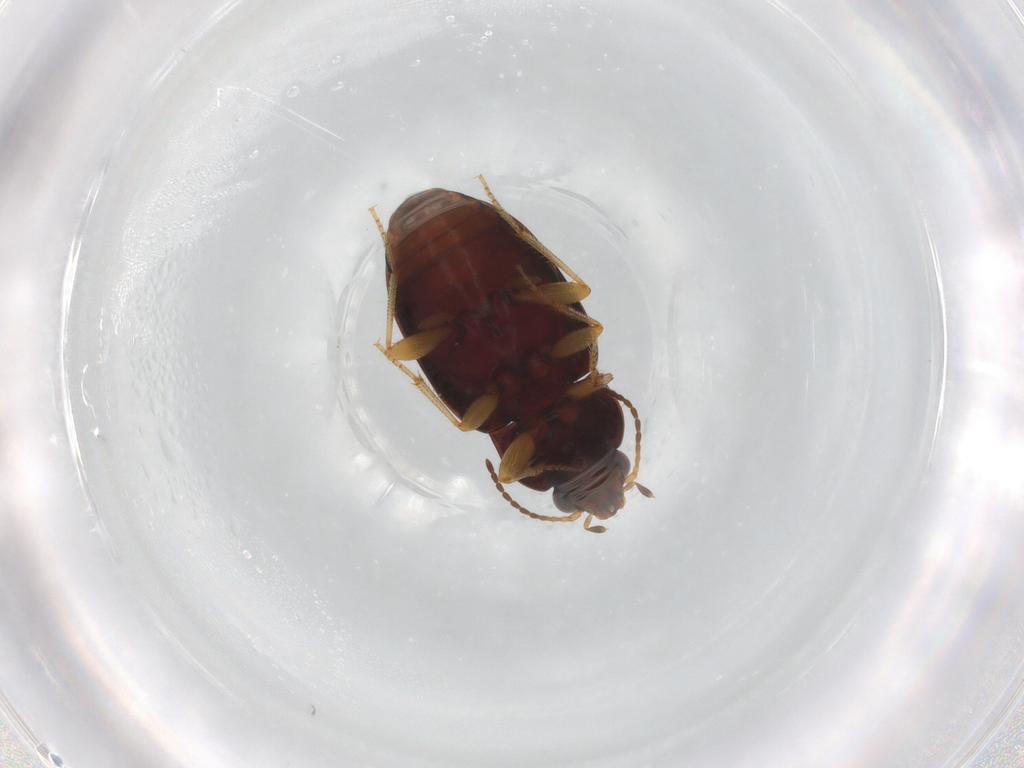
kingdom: Animalia
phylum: Arthropoda
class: Insecta
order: Coleoptera
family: Carabidae
